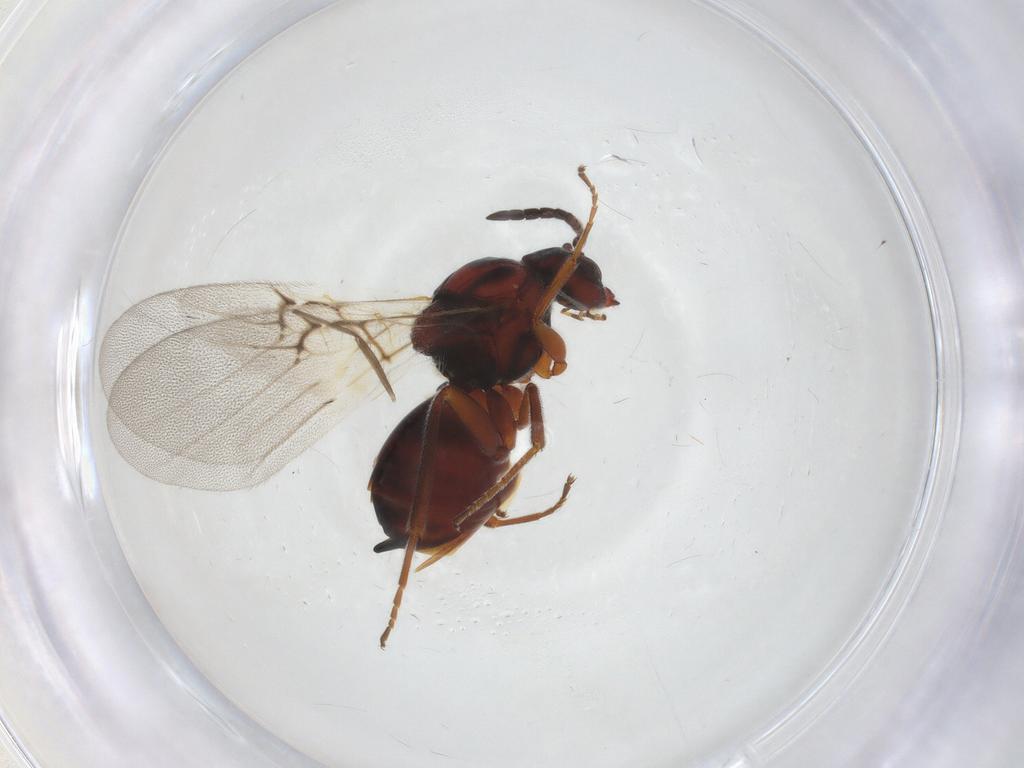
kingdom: Animalia
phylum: Arthropoda
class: Insecta
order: Hymenoptera
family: Cynipidae
